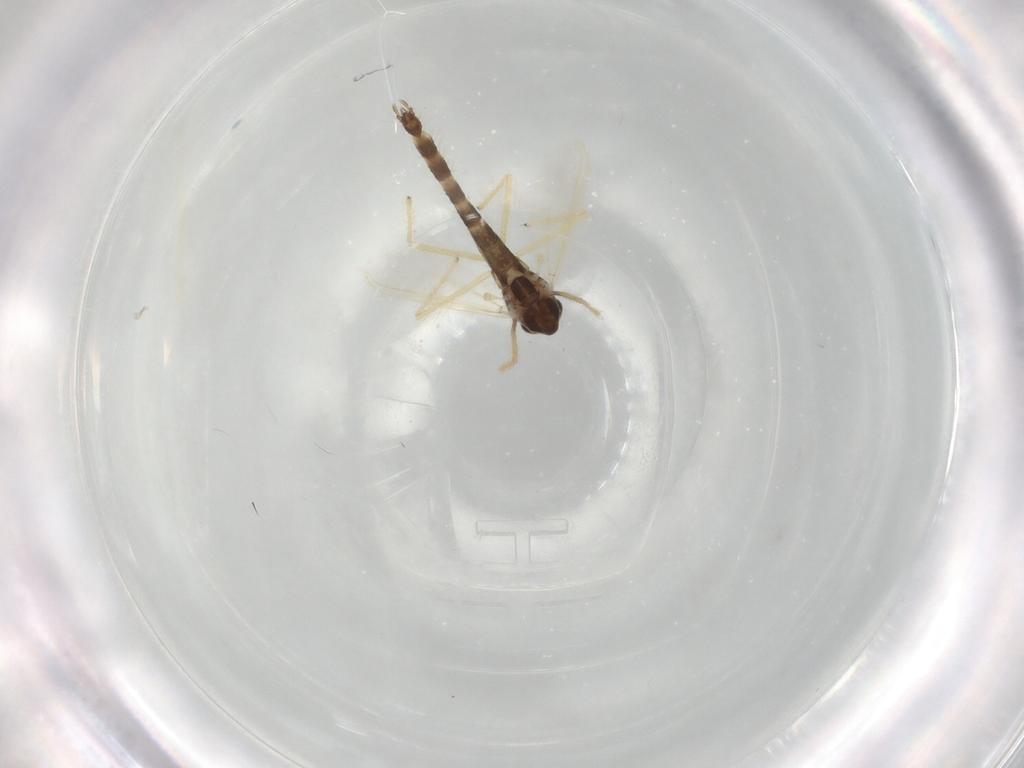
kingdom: Animalia
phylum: Arthropoda
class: Insecta
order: Diptera
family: Chironomidae
